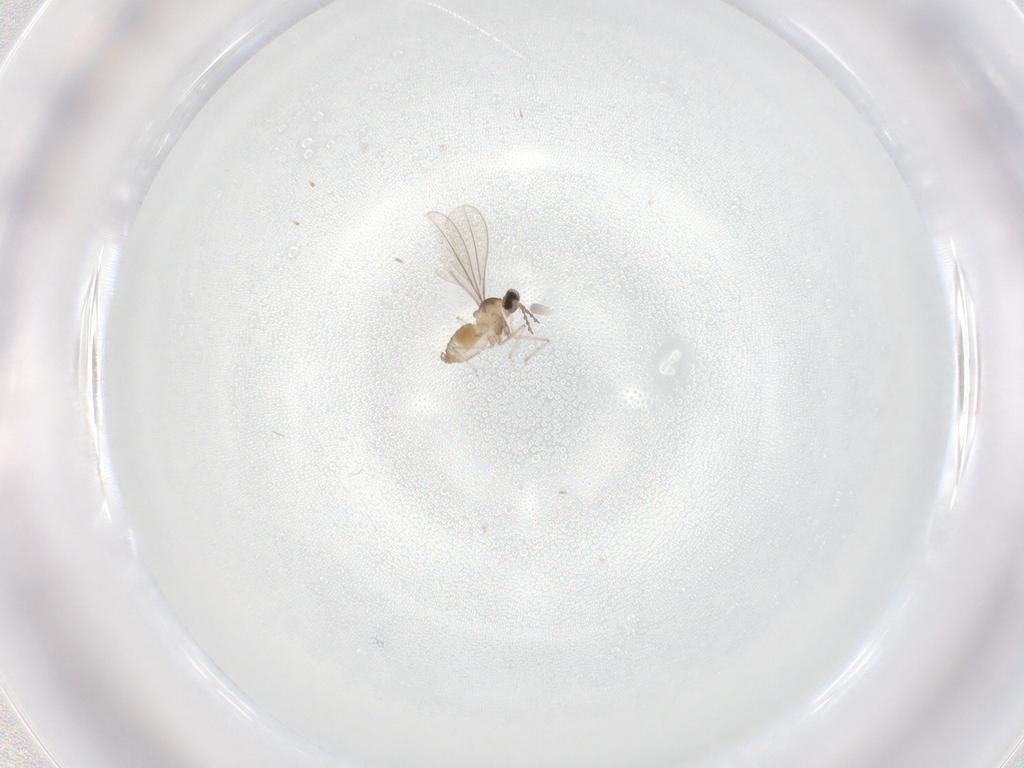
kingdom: Animalia
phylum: Arthropoda
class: Insecta
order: Diptera
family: Cecidomyiidae
